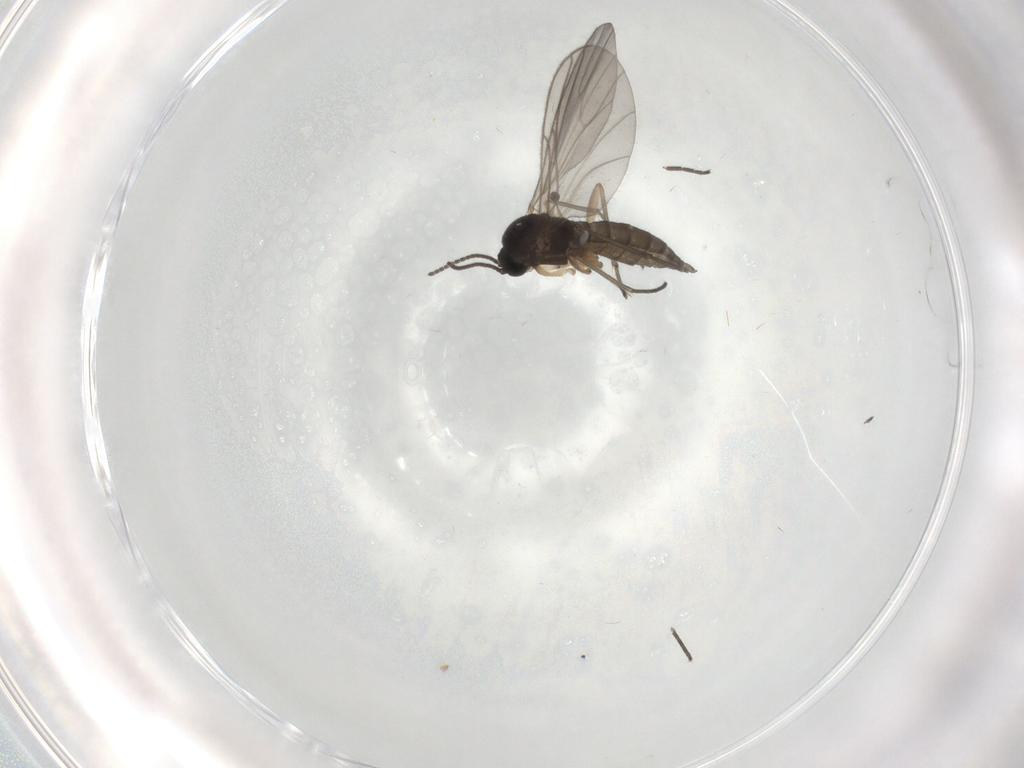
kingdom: Animalia
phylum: Arthropoda
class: Insecta
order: Diptera
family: Sciaridae
